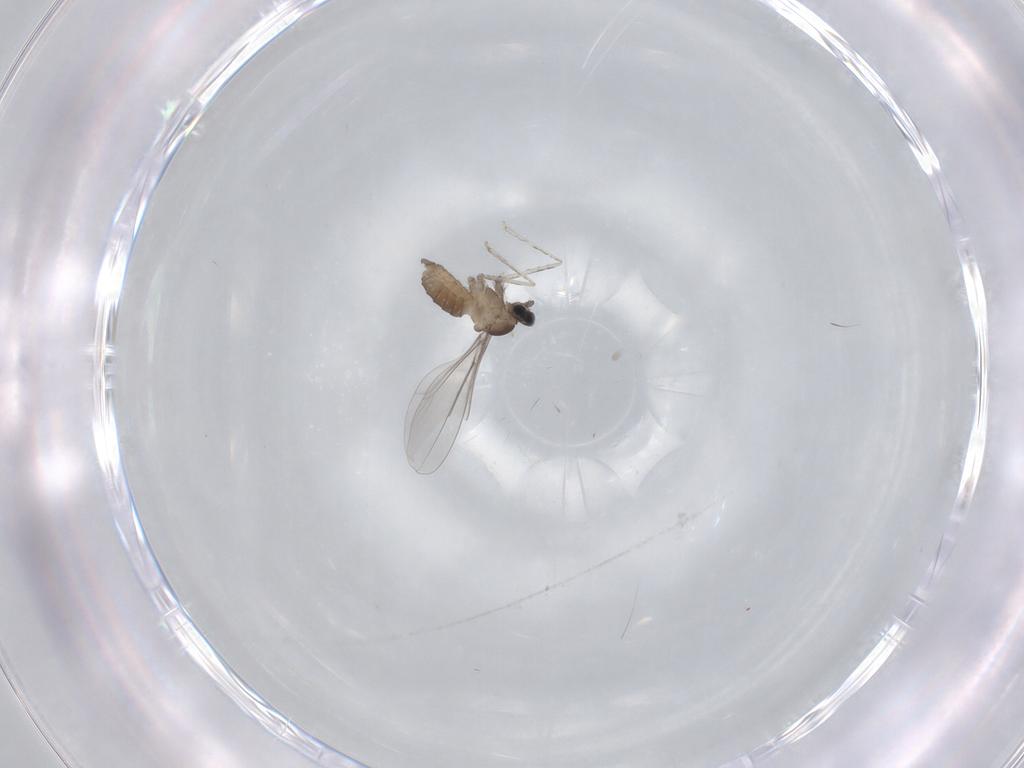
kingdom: Animalia
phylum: Arthropoda
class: Insecta
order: Diptera
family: Cecidomyiidae
